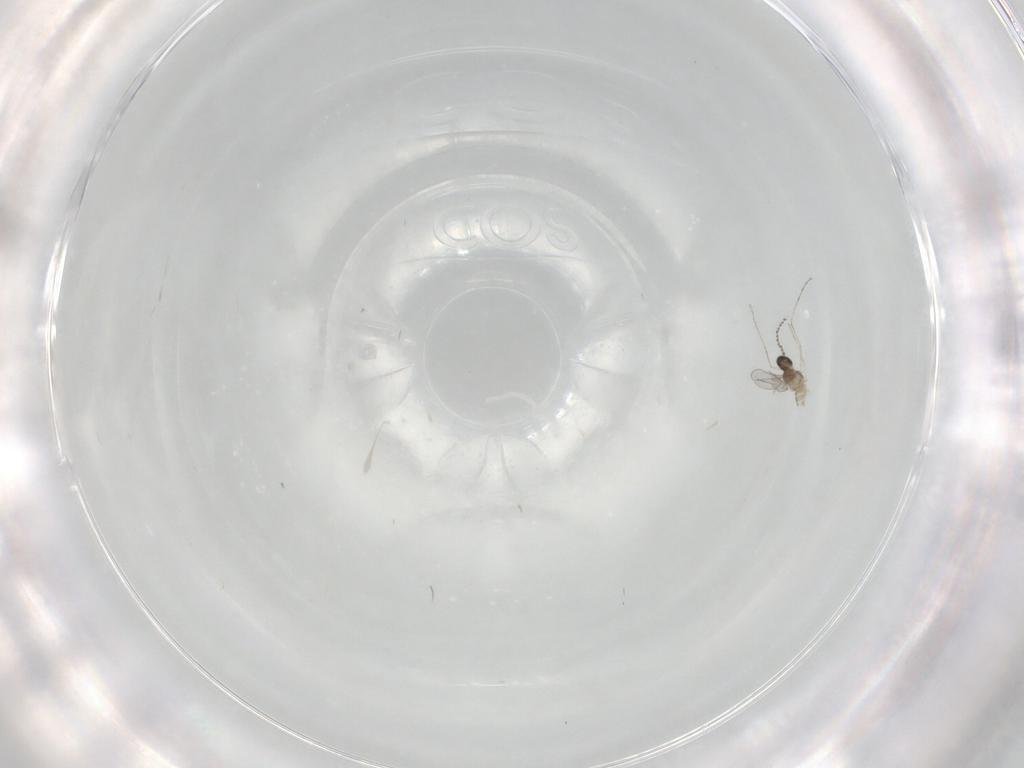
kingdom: Animalia
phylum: Arthropoda
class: Insecta
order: Diptera
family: Cecidomyiidae
